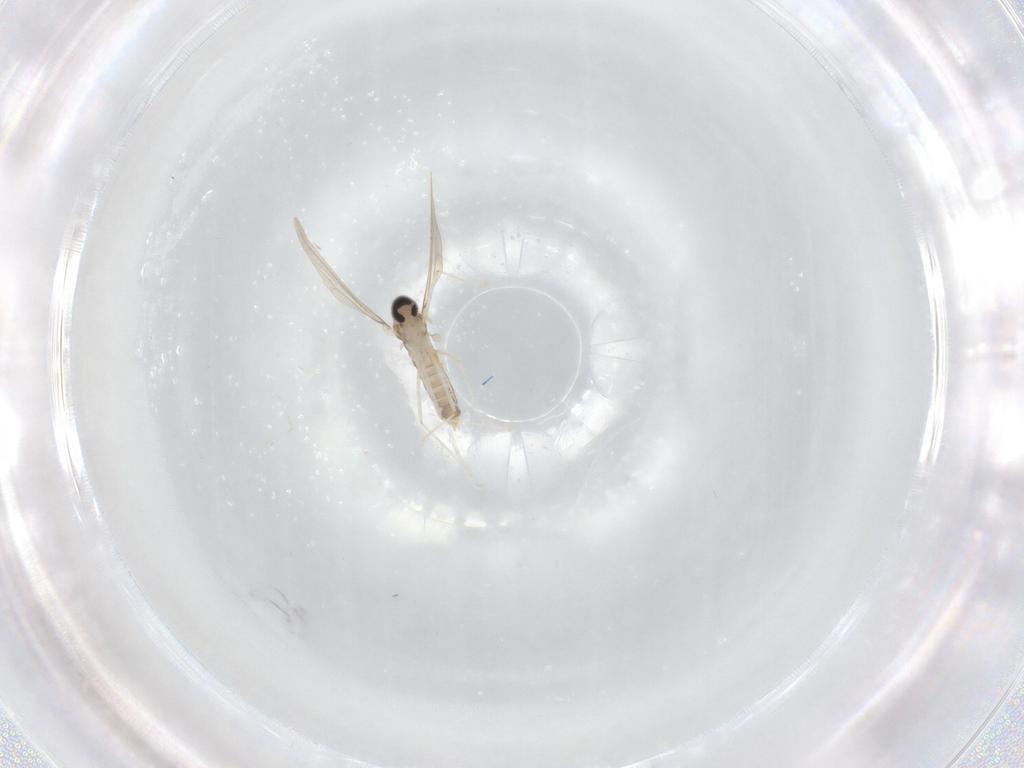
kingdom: Animalia
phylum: Arthropoda
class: Insecta
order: Diptera
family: Cecidomyiidae
